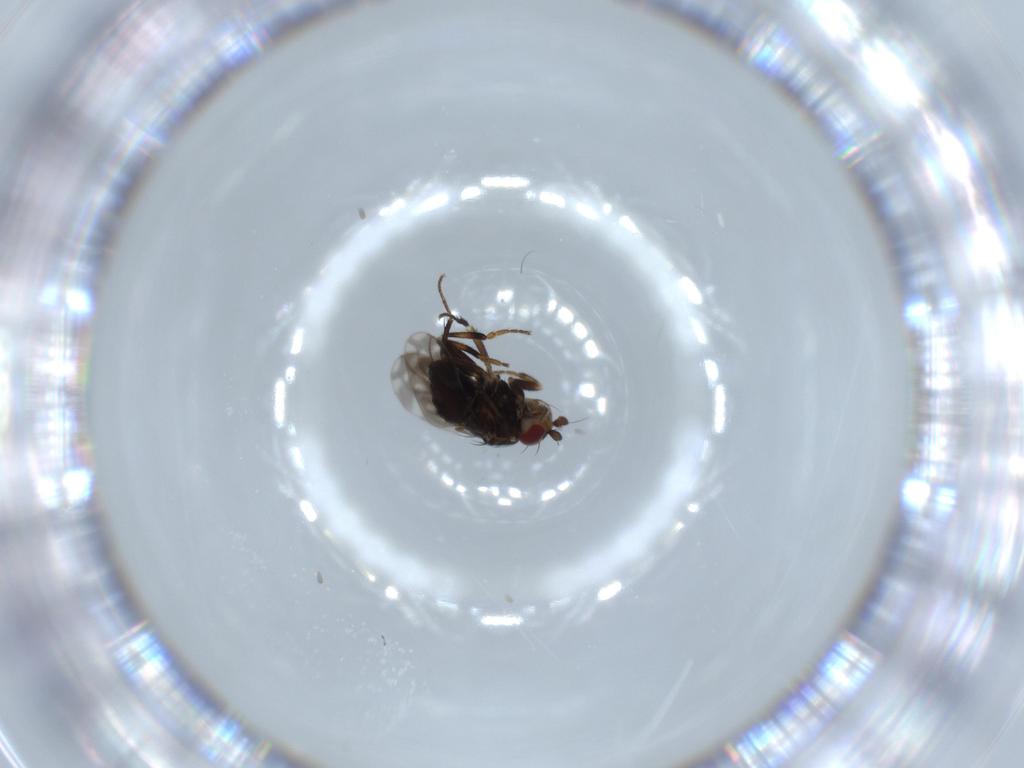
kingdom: Animalia
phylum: Arthropoda
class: Insecta
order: Diptera
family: Sphaeroceridae
